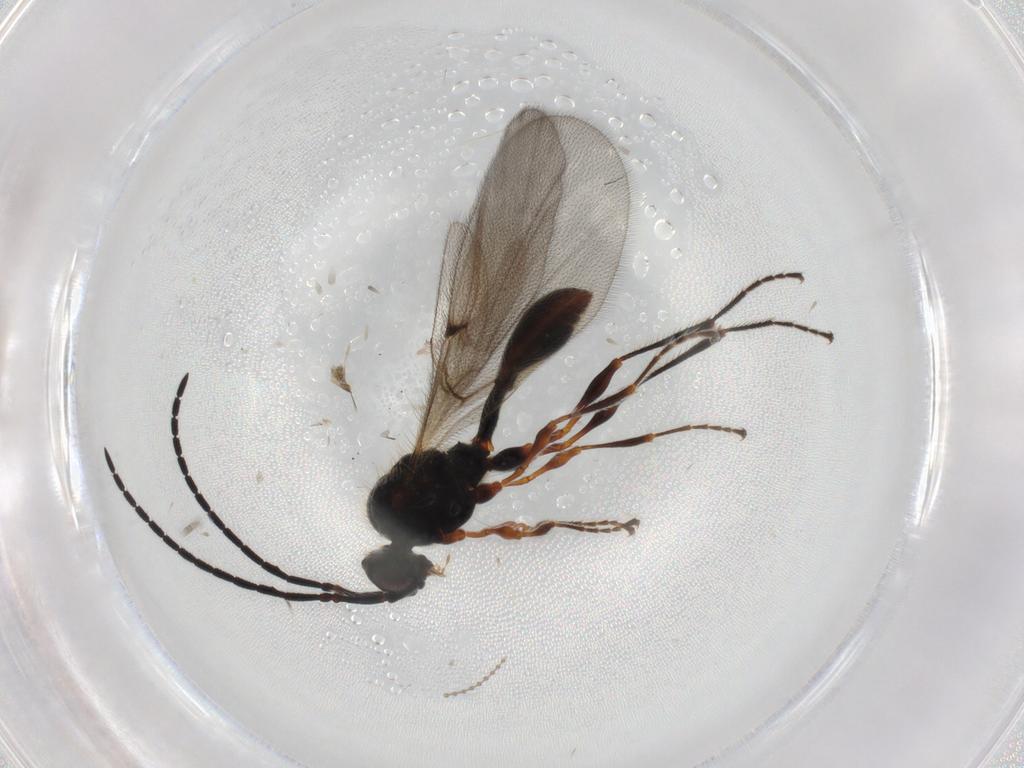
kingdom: Animalia
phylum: Arthropoda
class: Insecta
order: Hymenoptera
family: Diapriidae
